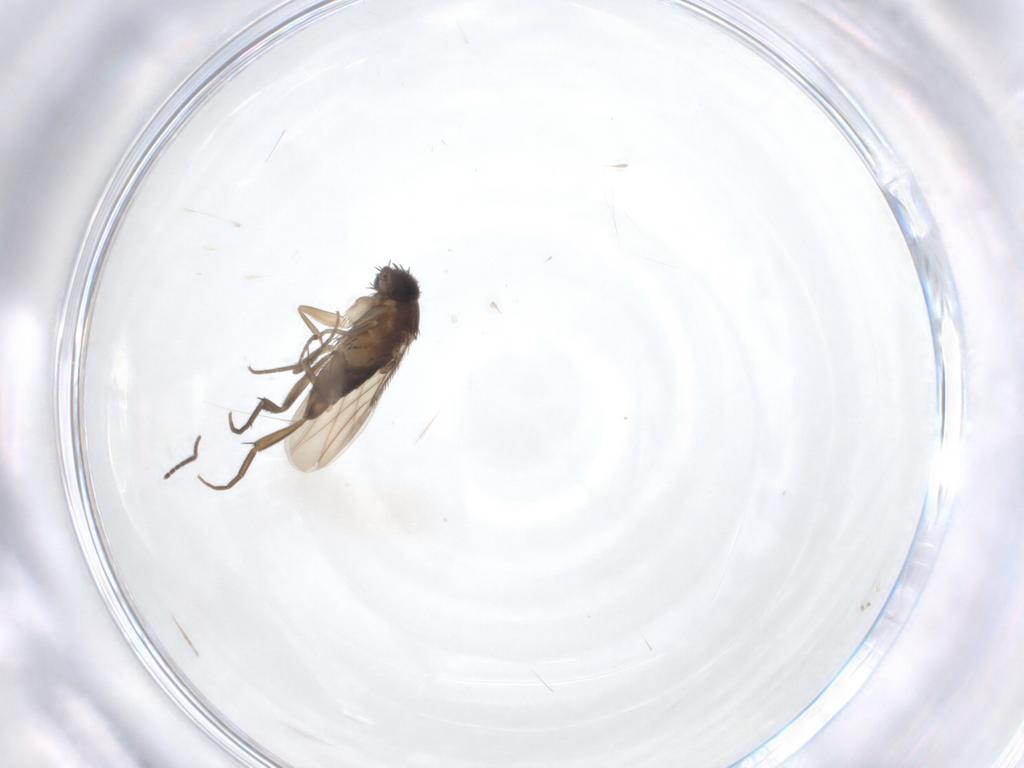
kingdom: Animalia
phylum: Arthropoda
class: Insecta
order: Diptera
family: Phoridae
